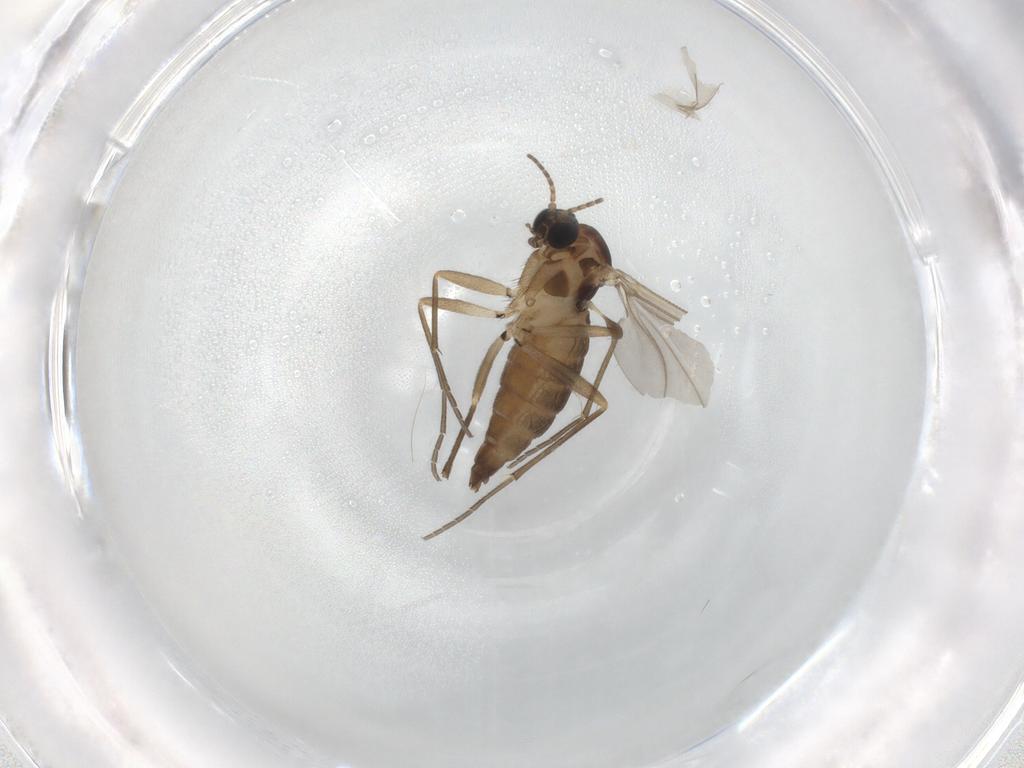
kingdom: Animalia
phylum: Arthropoda
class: Insecta
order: Diptera
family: Sciaridae
